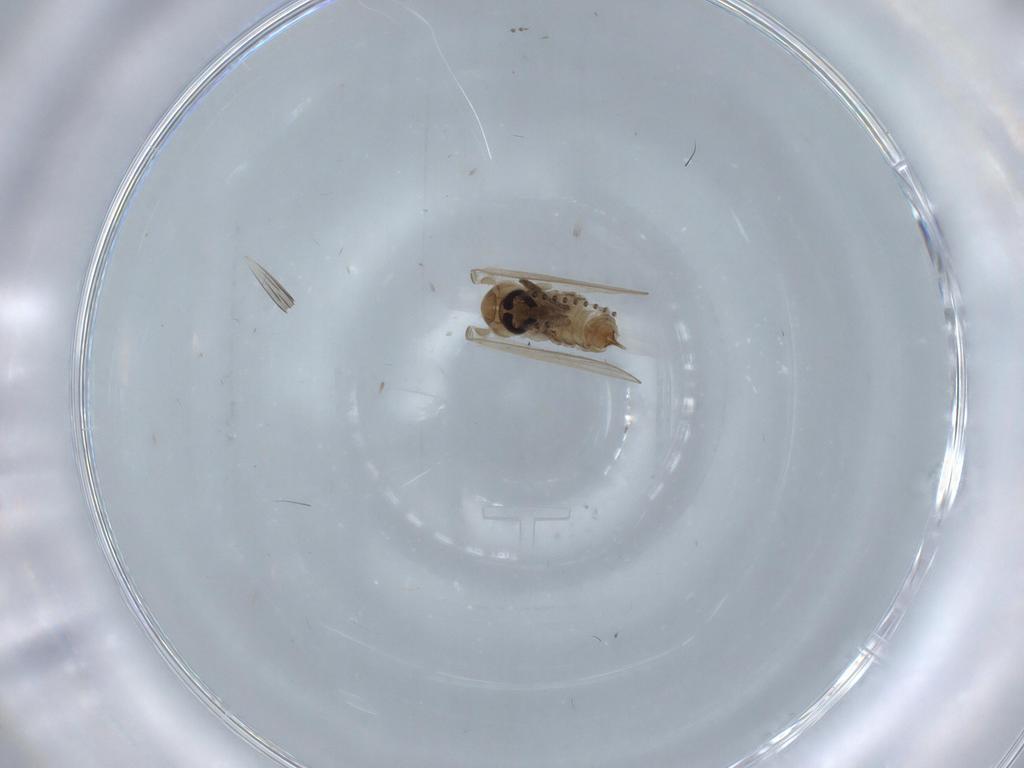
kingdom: Animalia
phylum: Arthropoda
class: Insecta
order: Diptera
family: Psychodidae
